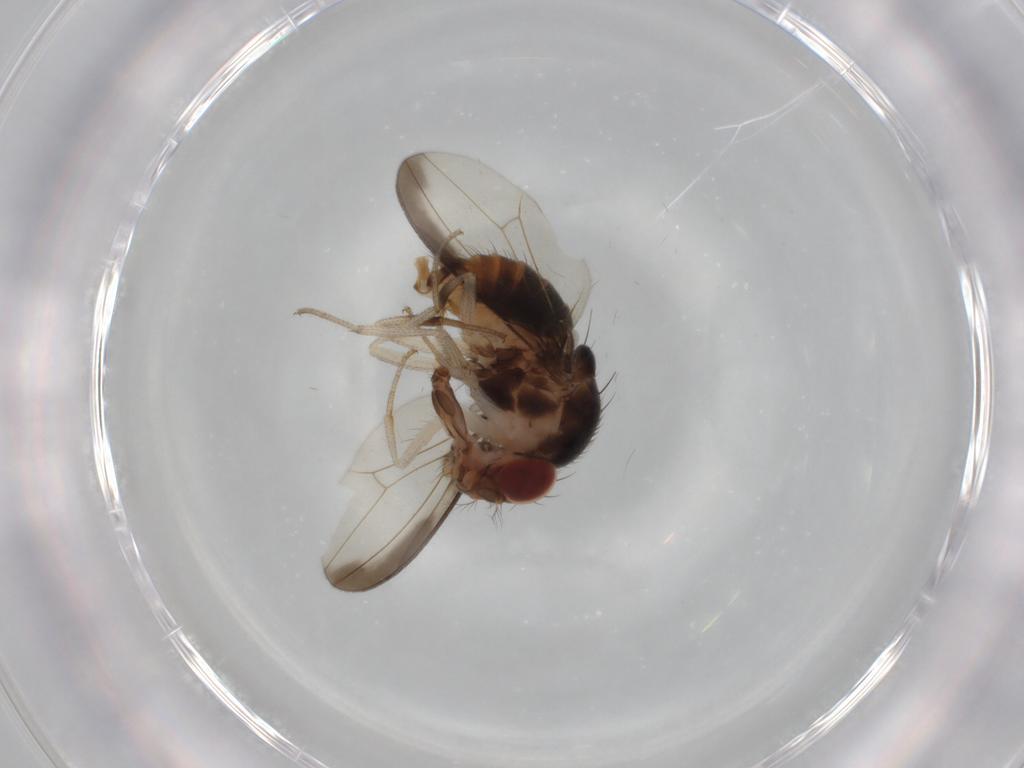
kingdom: Animalia
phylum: Arthropoda
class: Insecta
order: Diptera
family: Drosophilidae
